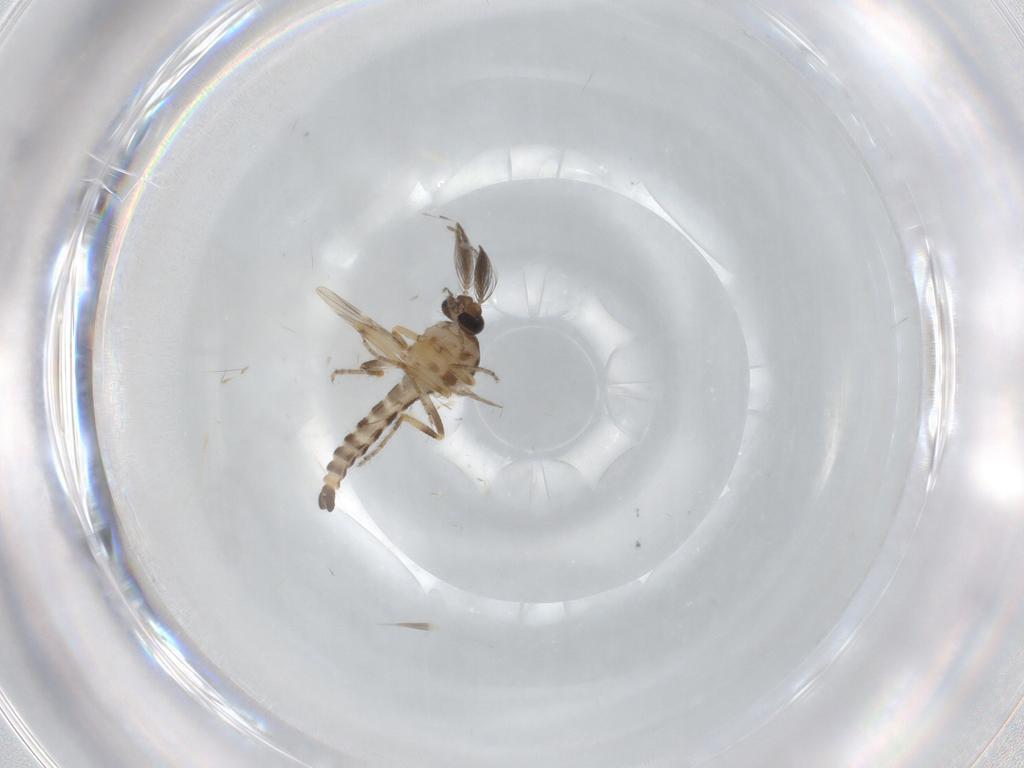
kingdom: Animalia
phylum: Arthropoda
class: Insecta
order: Diptera
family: Ceratopogonidae
